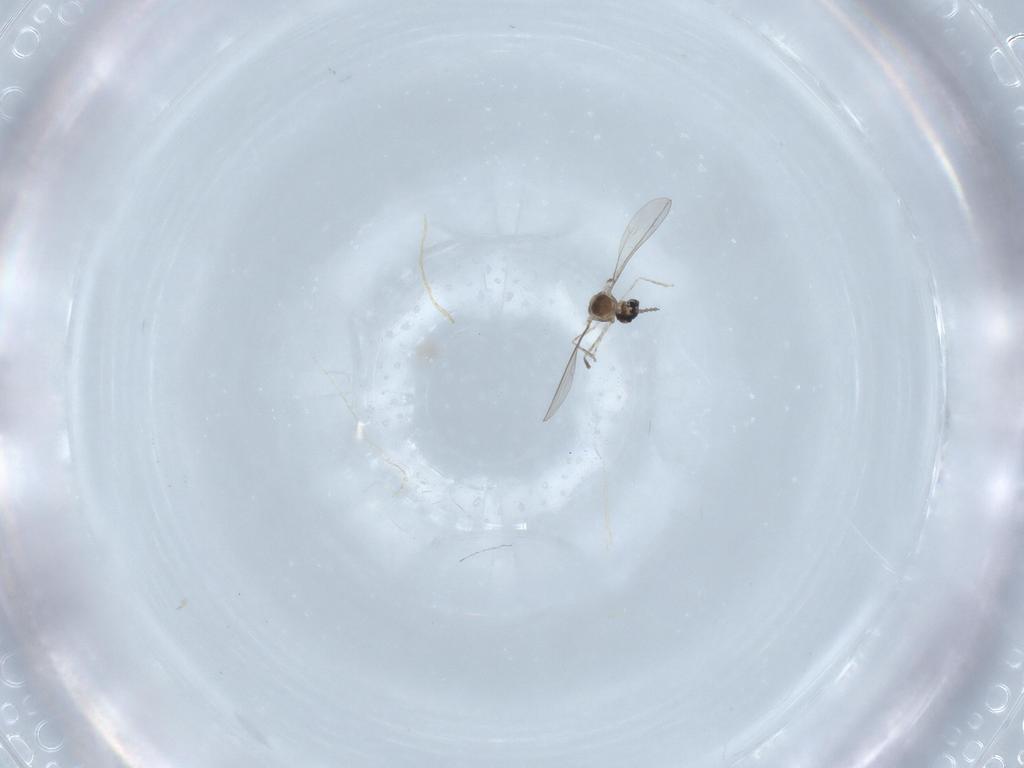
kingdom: Animalia
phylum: Arthropoda
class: Insecta
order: Diptera
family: Cecidomyiidae
